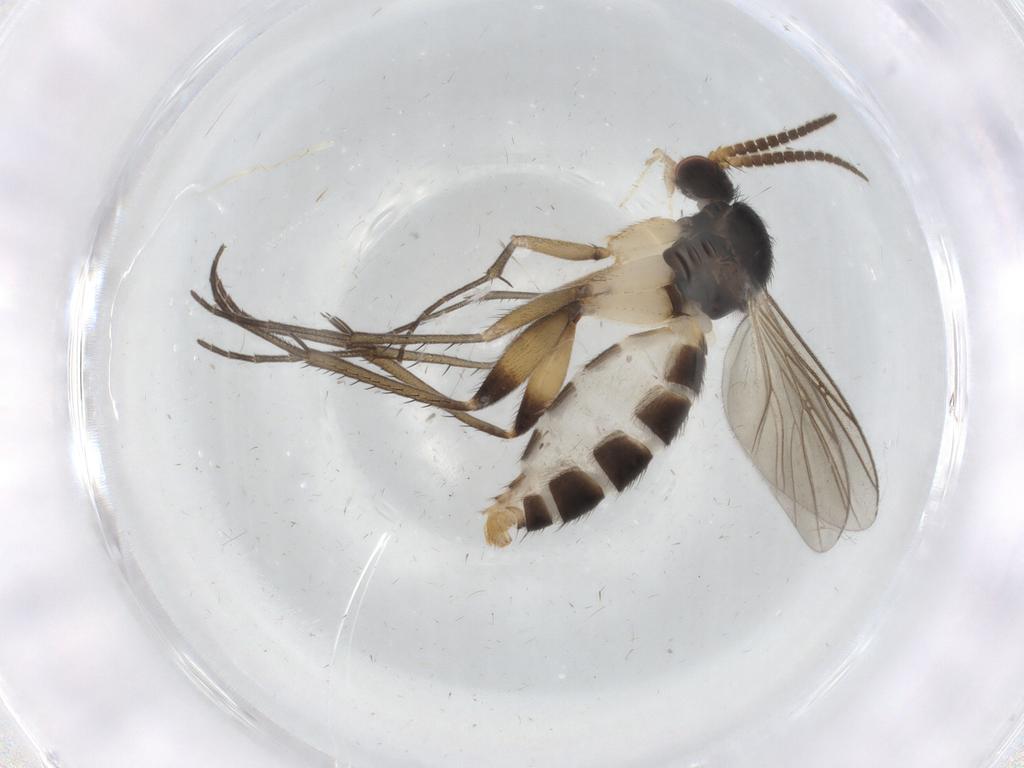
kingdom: Animalia
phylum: Arthropoda
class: Insecta
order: Diptera
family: Mycetophilidae
